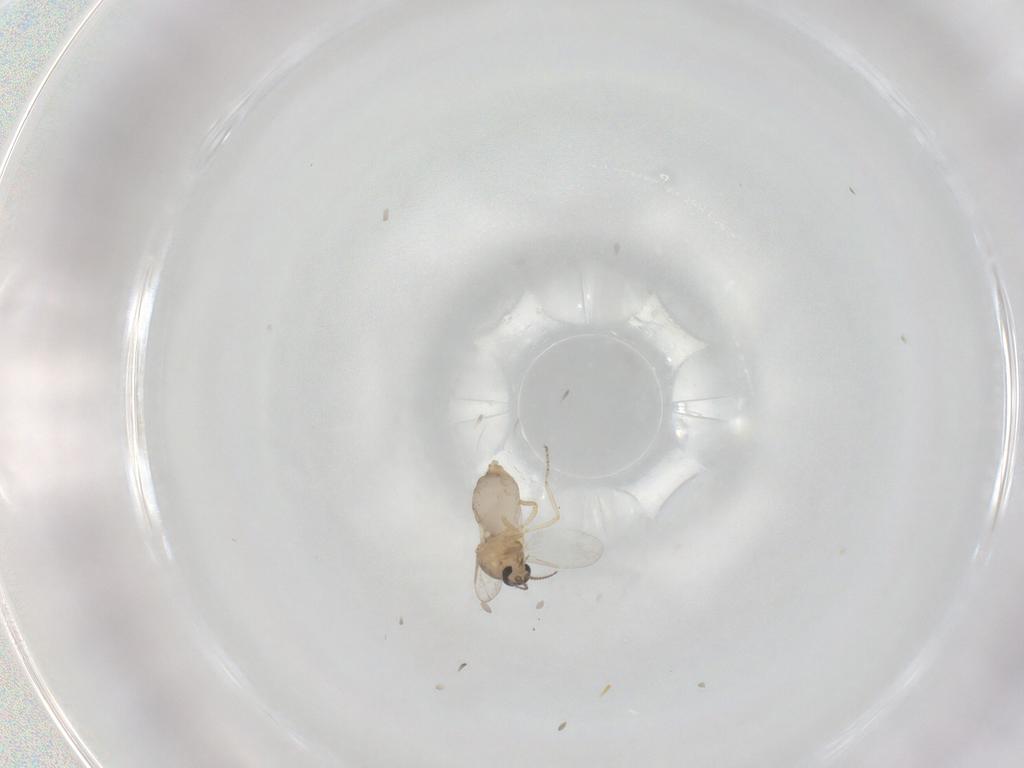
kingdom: Animalia
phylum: Arthropoda
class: Insecta
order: Diptera
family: Ceratopogonidae
